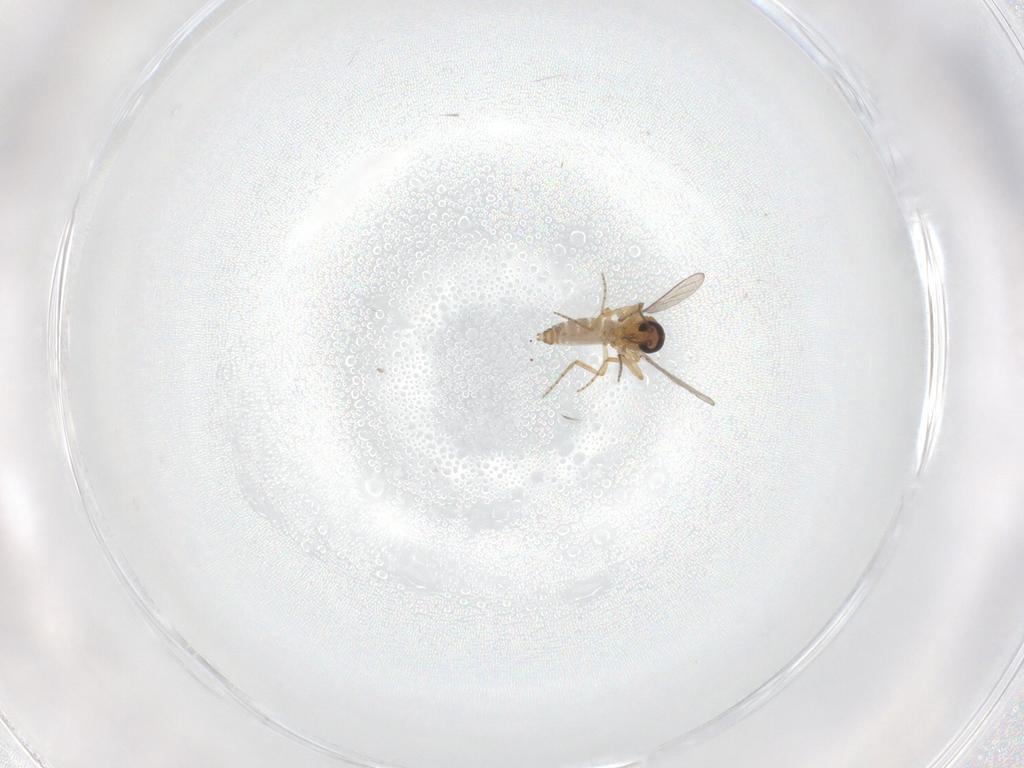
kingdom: Animalia
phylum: Arthropoda
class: Insecta
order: Diptera
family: Ceratopogonidae
